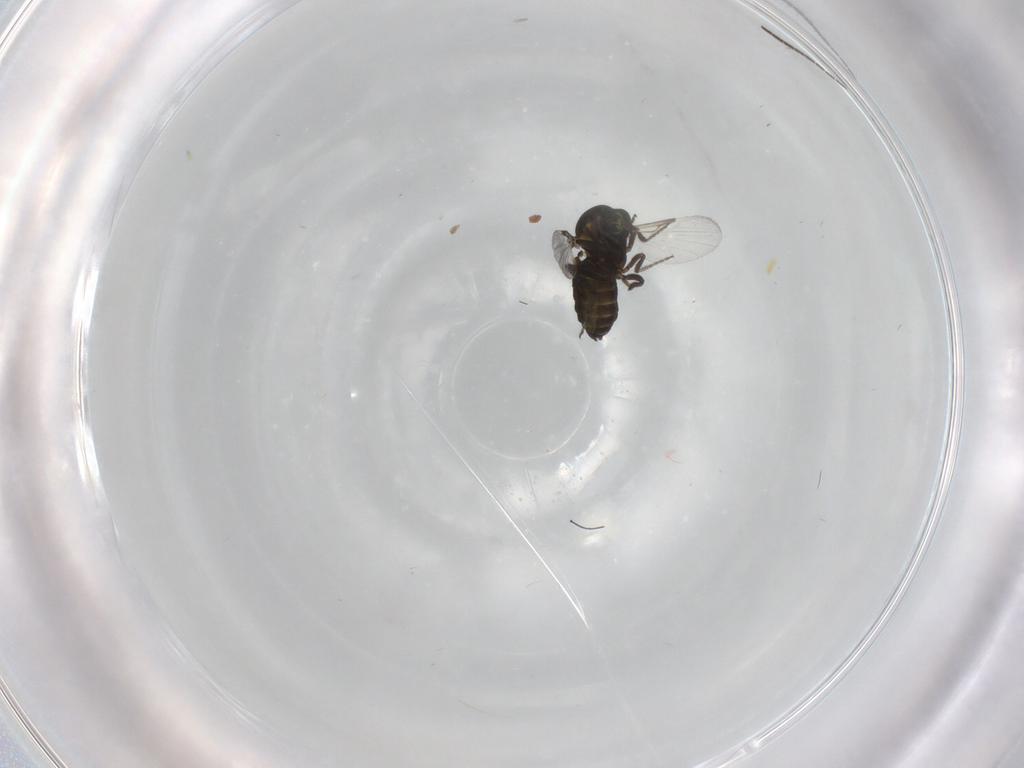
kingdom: Animalia
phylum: Arthropoda
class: Insecta
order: Diptera
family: Sciaridae
